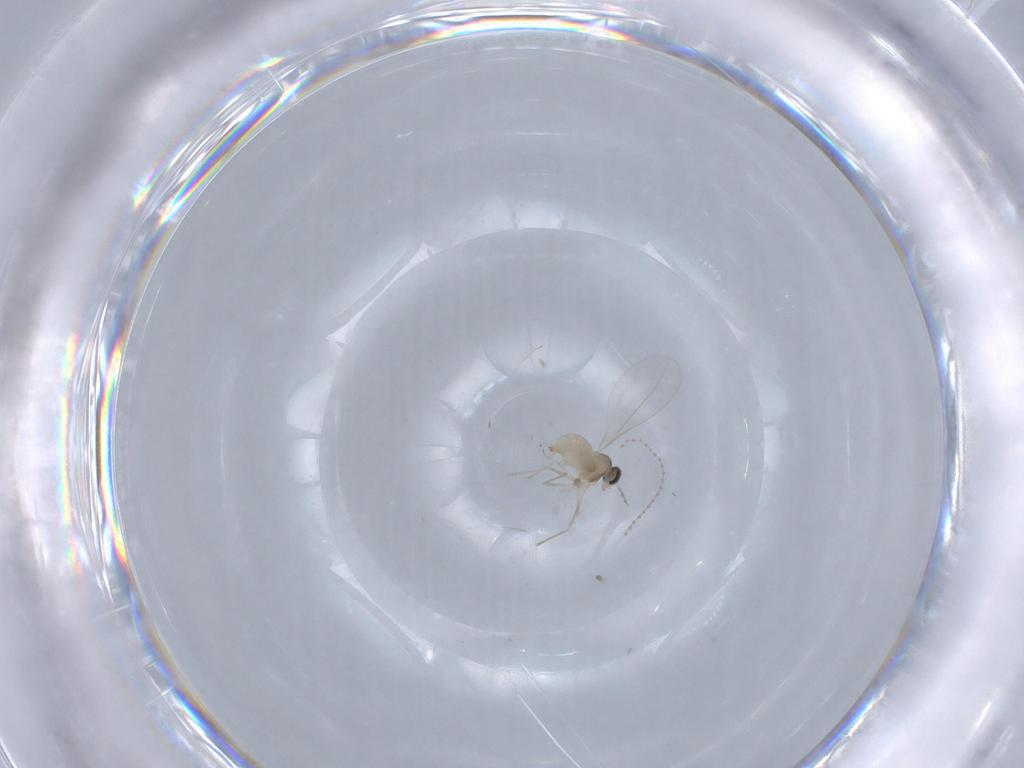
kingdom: Animalia
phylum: Arthropoda
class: Insecta
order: Diptera
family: Cecidomyiidae
